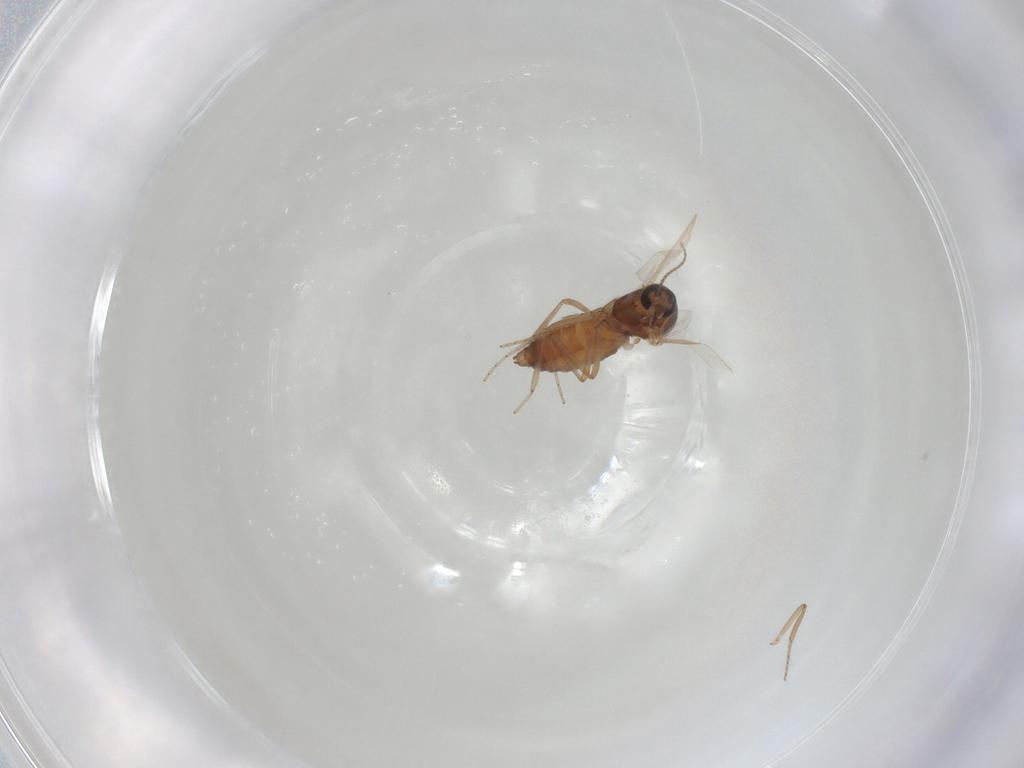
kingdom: Animalia
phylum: Arthropoda
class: Insecta
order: Diptera
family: Ceratopogonidae
